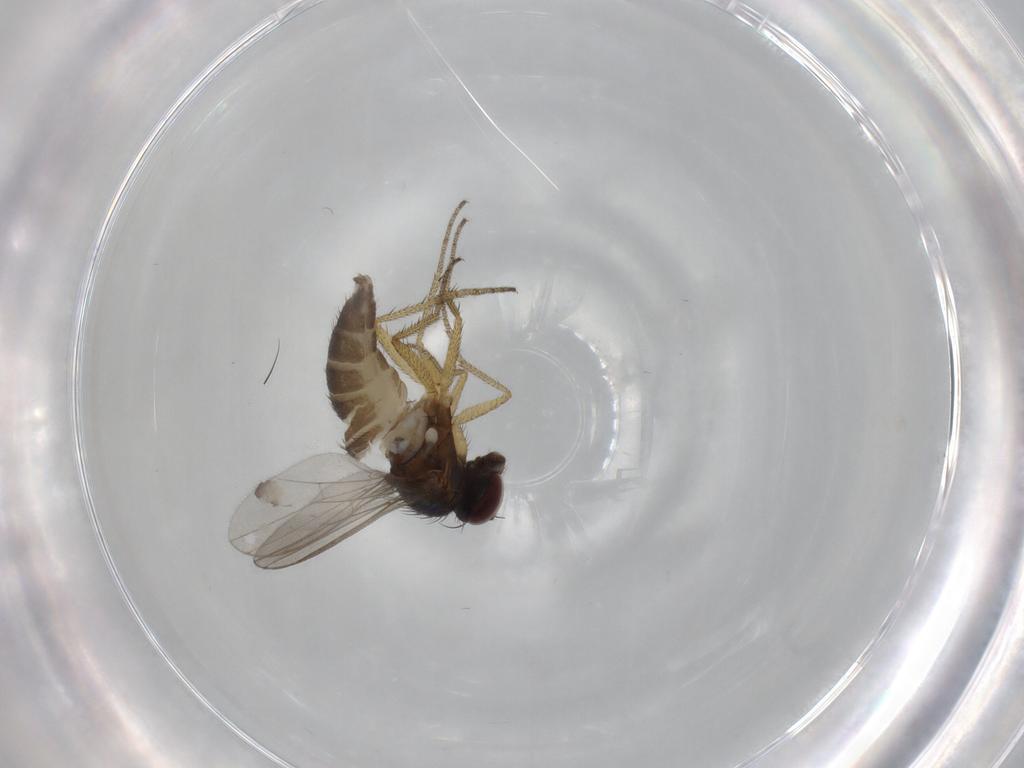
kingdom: Animalia
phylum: Arthropoda
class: Insecta
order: Diptera
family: Dolichopodidae
